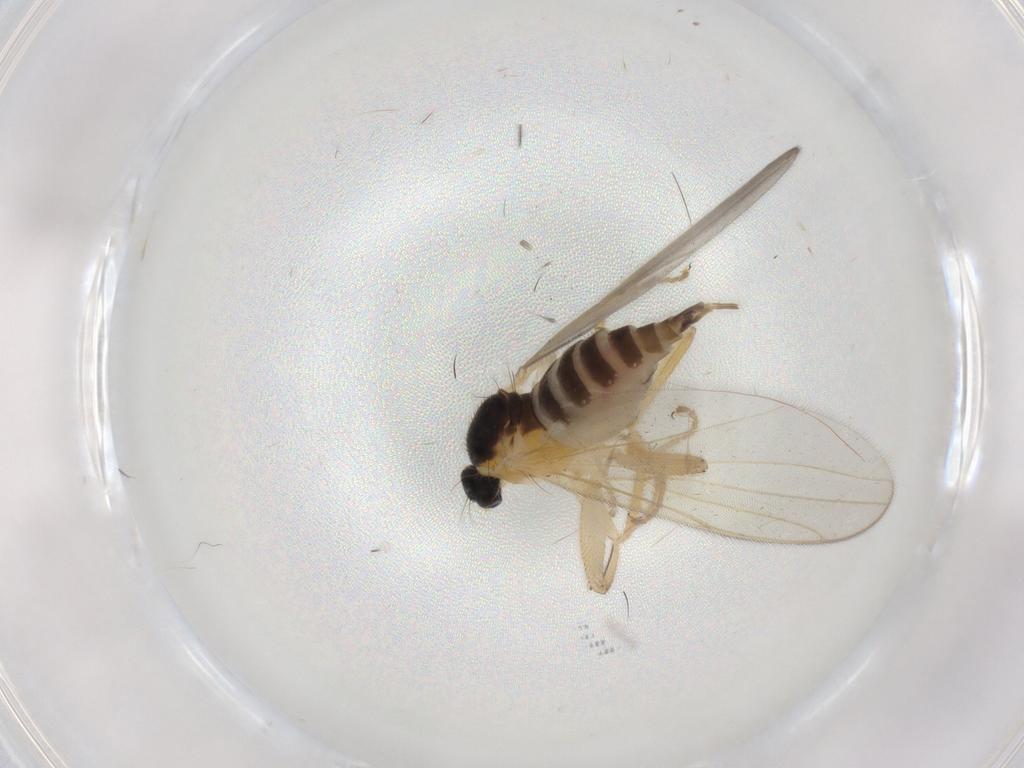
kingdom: Animalia
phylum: Arthropoda
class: Insecta
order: Diptera
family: Hybotidae
